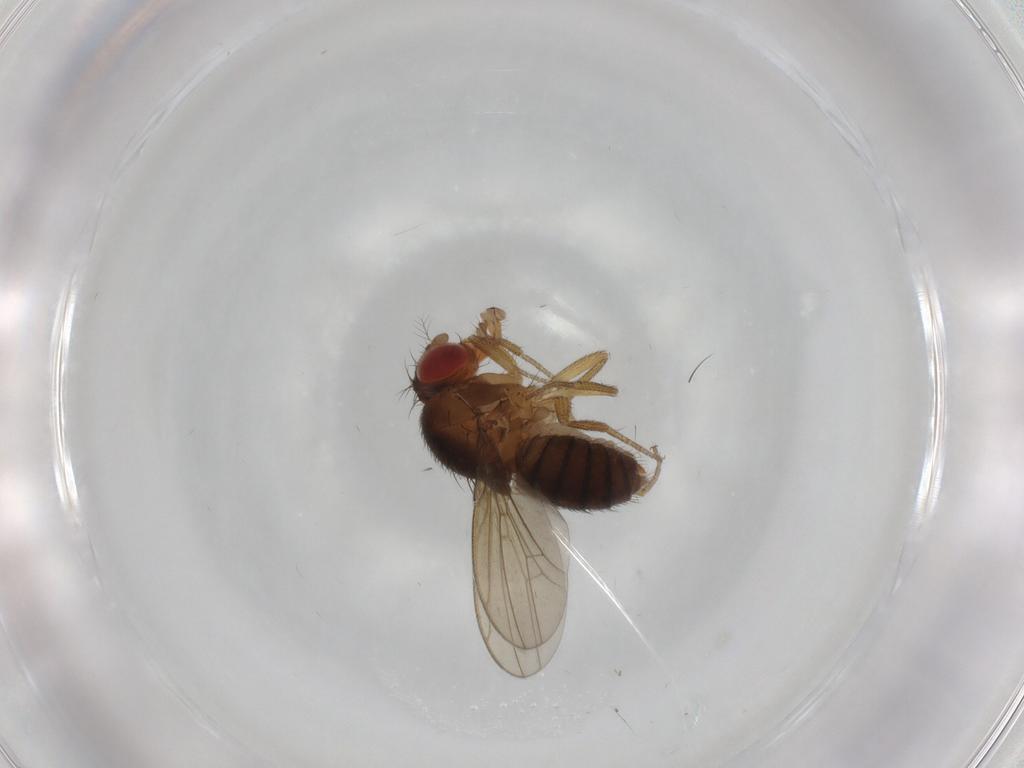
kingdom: Animalia
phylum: Arthropoda
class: Insecta
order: Diptera
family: Drosophilidae
